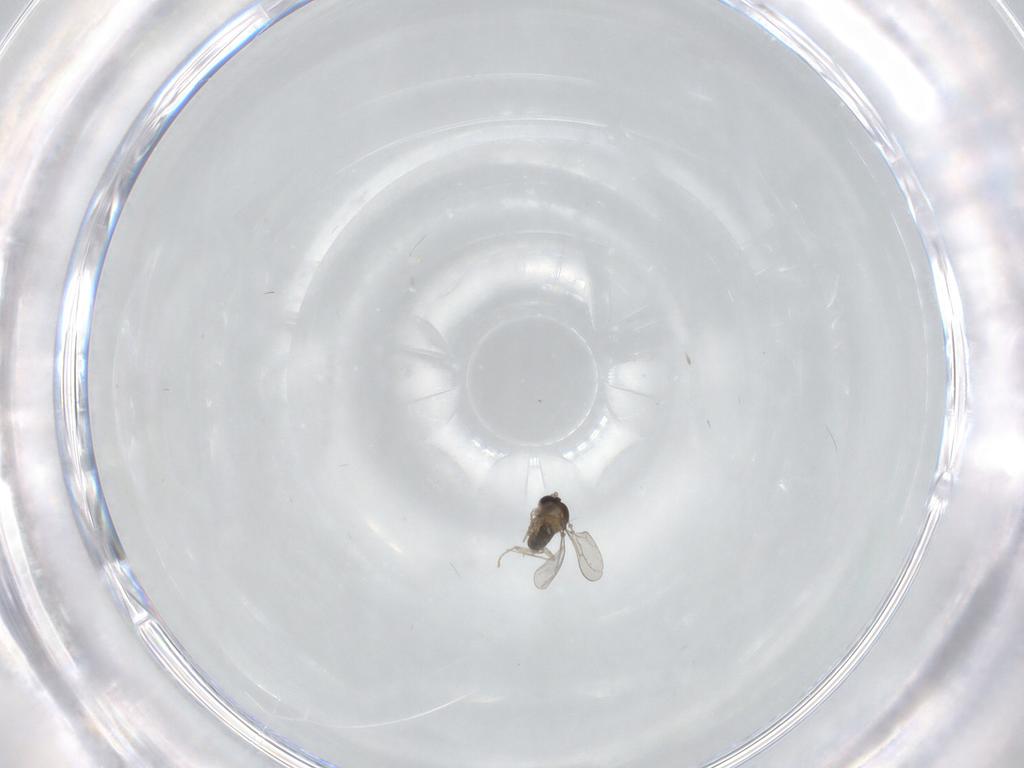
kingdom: Animalia
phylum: Arthropoda
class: Insecta
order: Diptera
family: Cecidomyiidae
